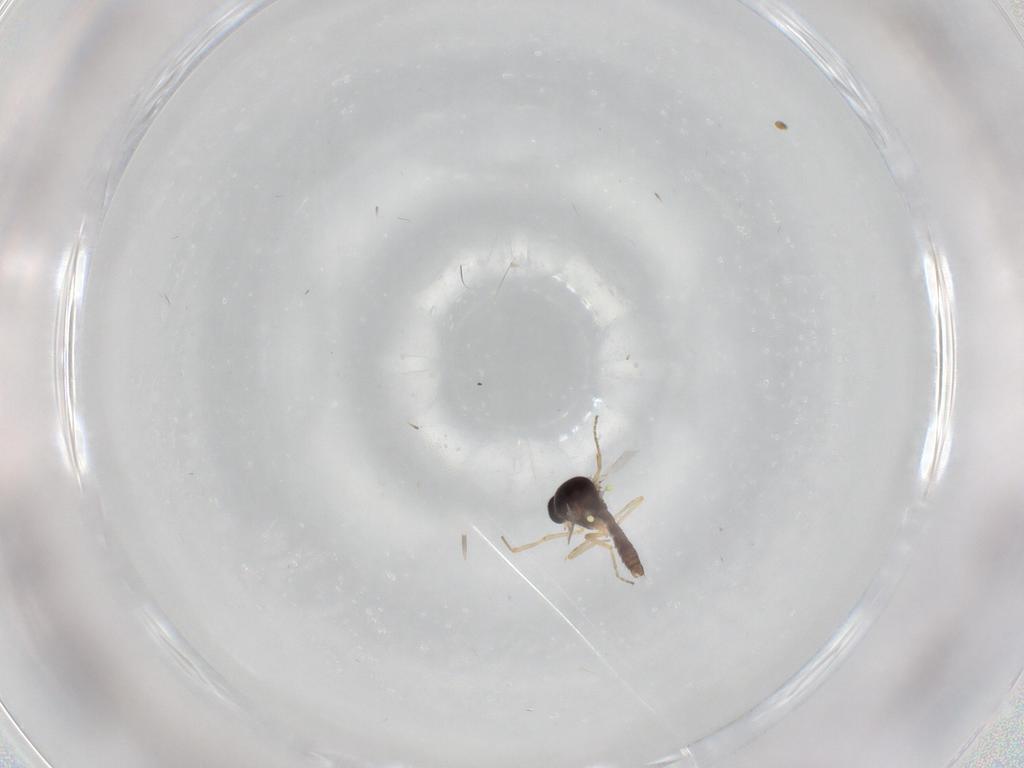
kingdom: Animalia
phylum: Arthropoda
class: Insecta
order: Diptera
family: Ceratopogonidae
